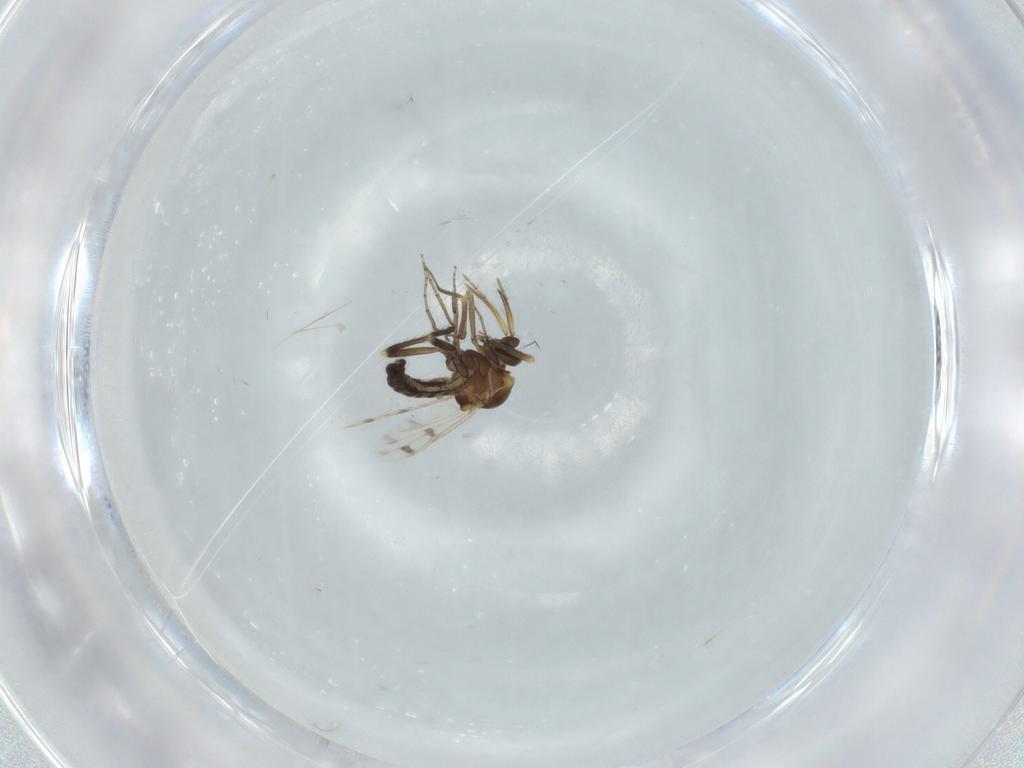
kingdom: Animalia
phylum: Arthropoda
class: Insecta
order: Diptera
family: Ceratopogonidae
